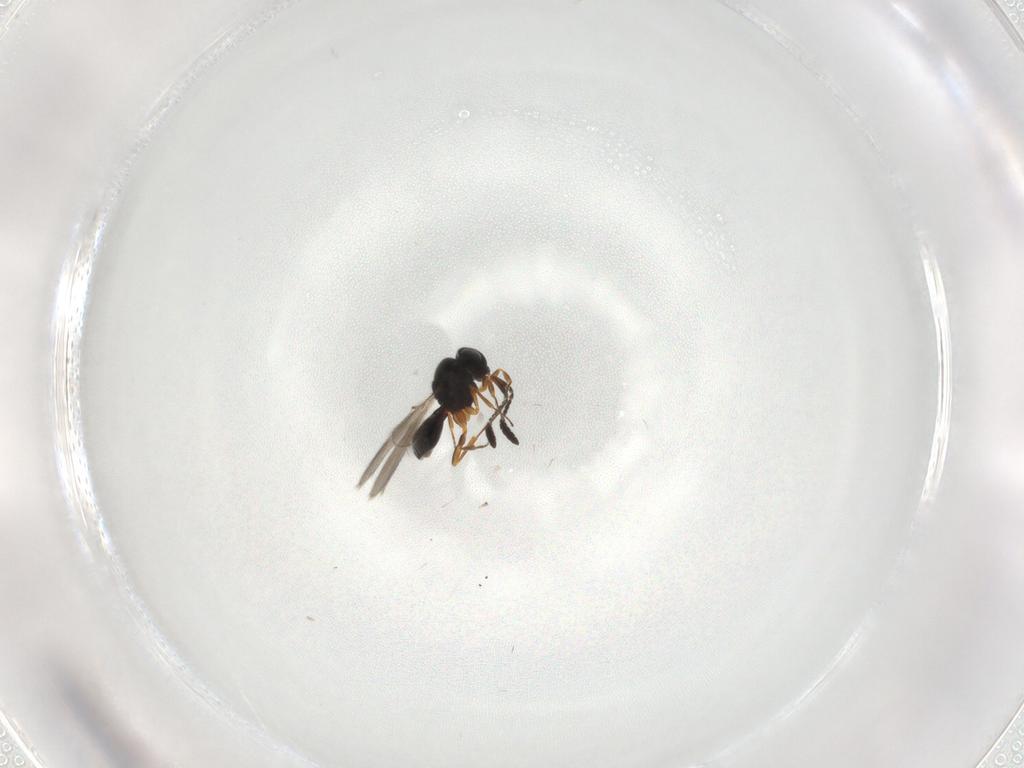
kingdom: Animalia
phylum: Arthropoda
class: Insecta
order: Hymenoptera
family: Scelionidae
